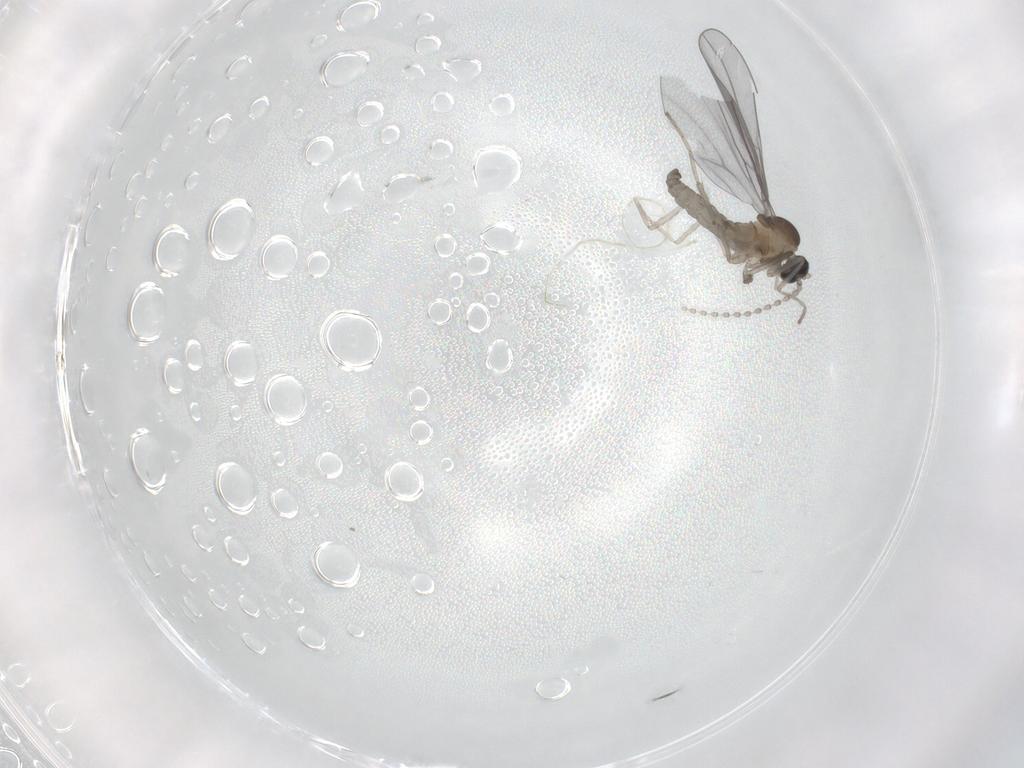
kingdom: Animalia
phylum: Arthropoda
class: Insecta
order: Diptera
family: Cecidomyiidae
